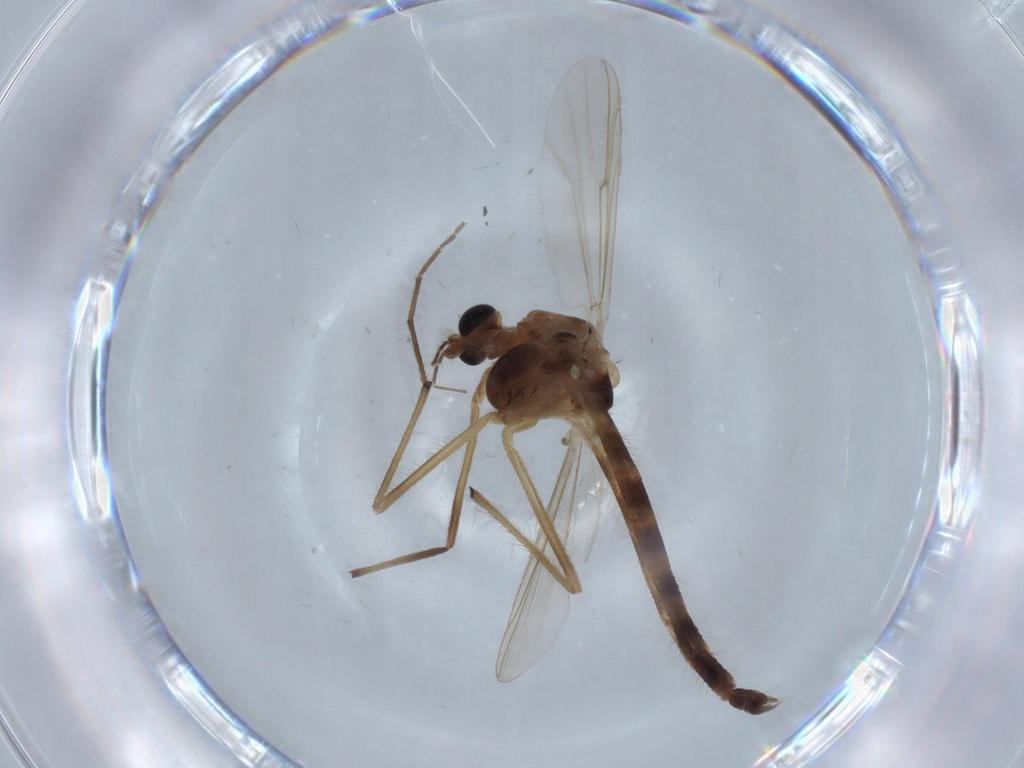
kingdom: Animalia
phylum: Arthropoda
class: Insecta
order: Diptera
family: Chironomidae
